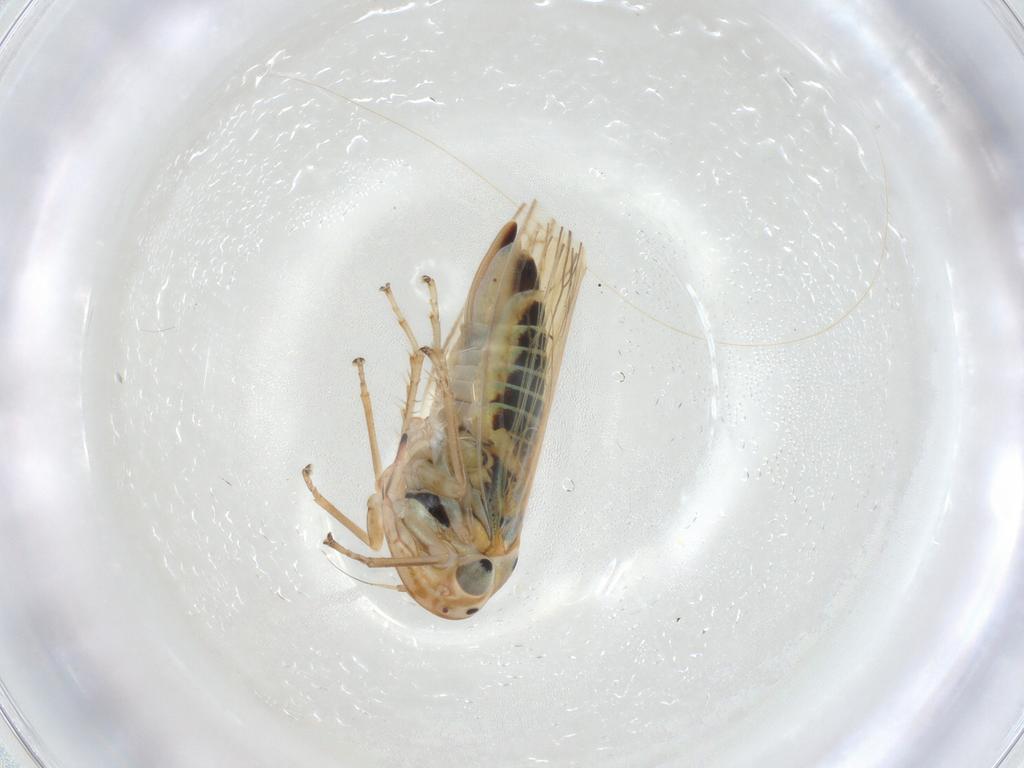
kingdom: Animalia
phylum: Arthropoda
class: Insecta
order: Hemiptera
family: Cicadellidae
